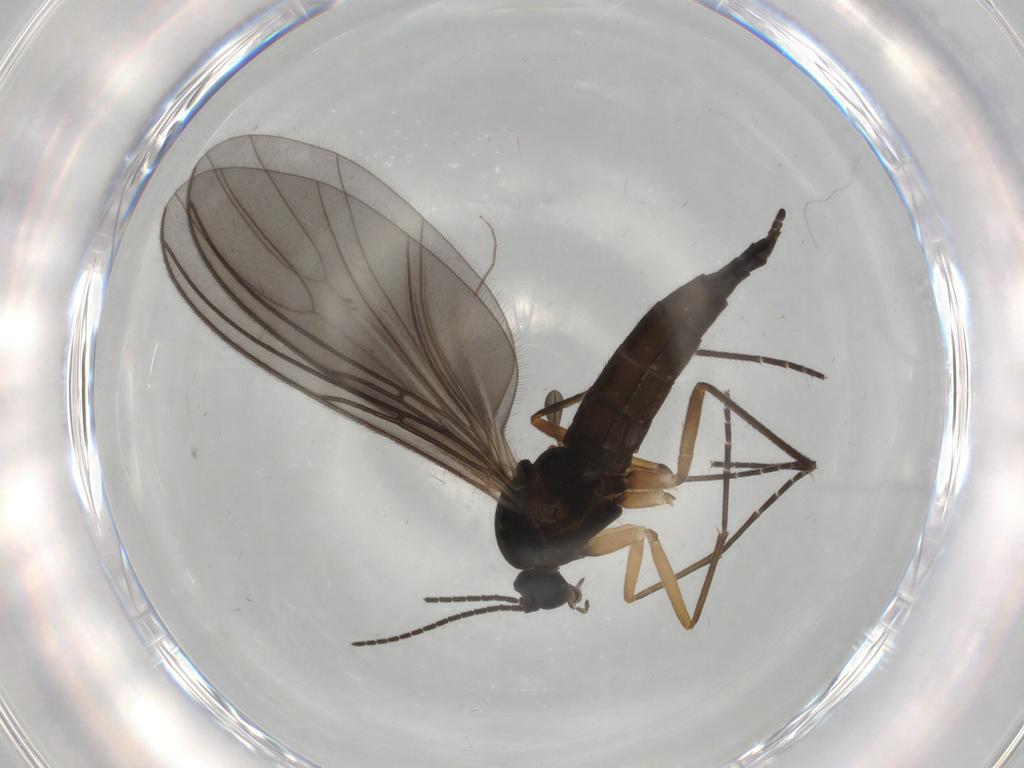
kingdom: Animalia
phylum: Arthropoda
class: Insecta
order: Diptera
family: Sciaridae
